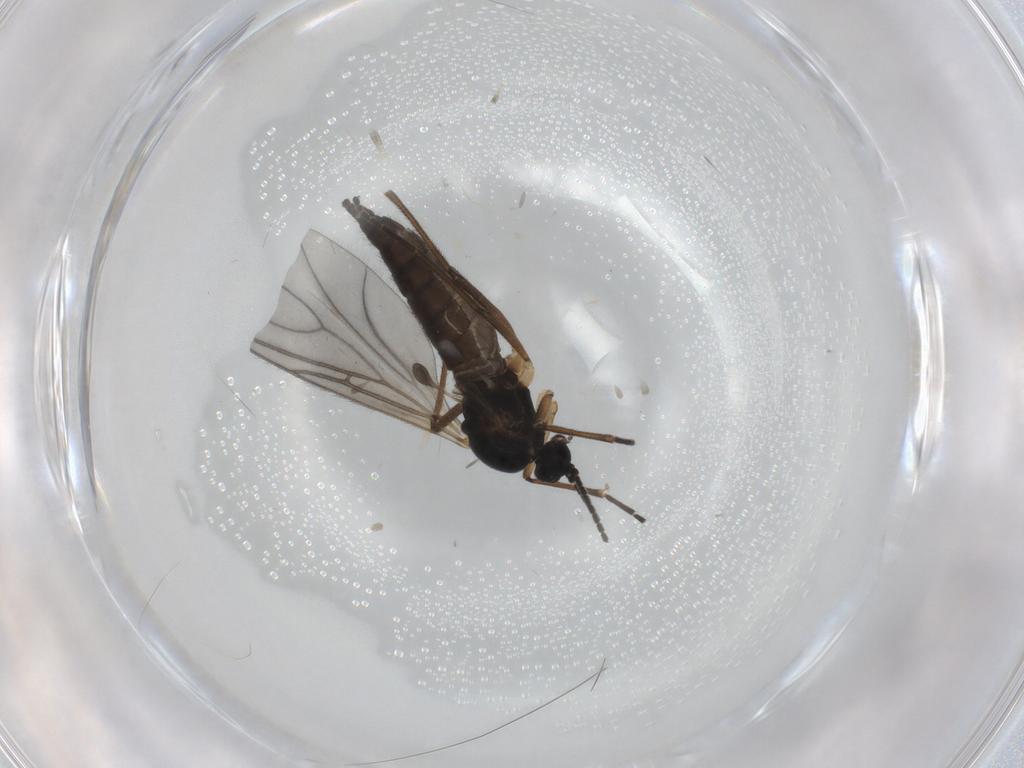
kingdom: Animalia
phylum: Arthropoda
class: Insecta
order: Diptera
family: Sciaridae
